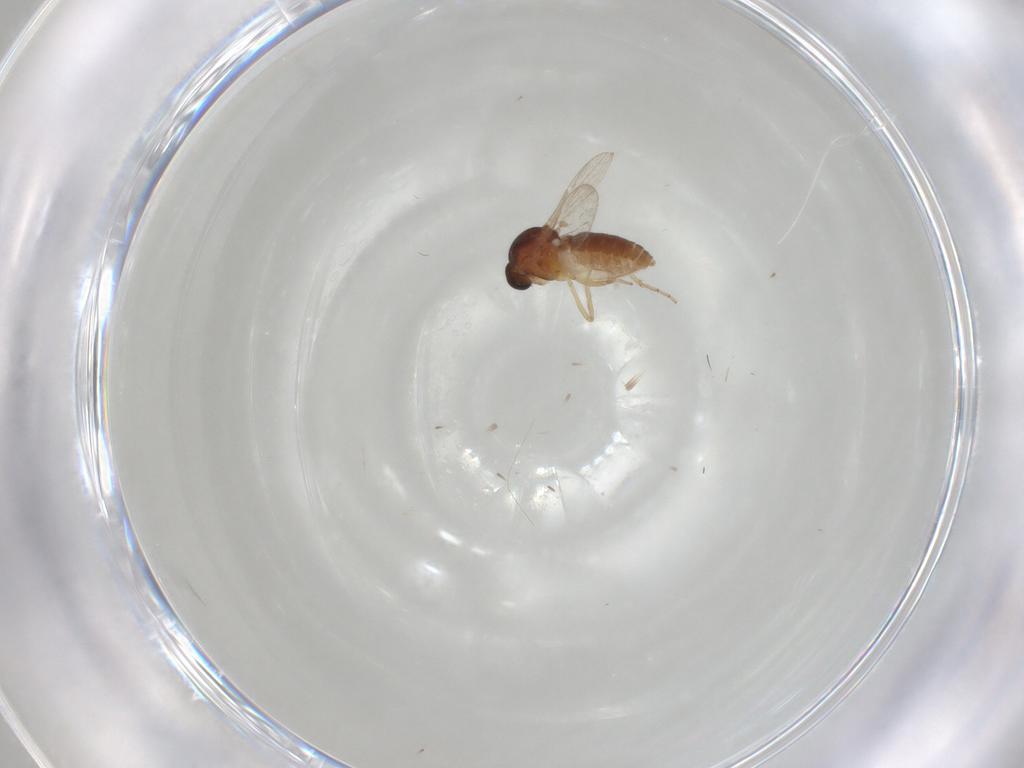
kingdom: Animalia
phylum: Arthropoda
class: Insecta
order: Diptera
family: Ceratopogonidae
